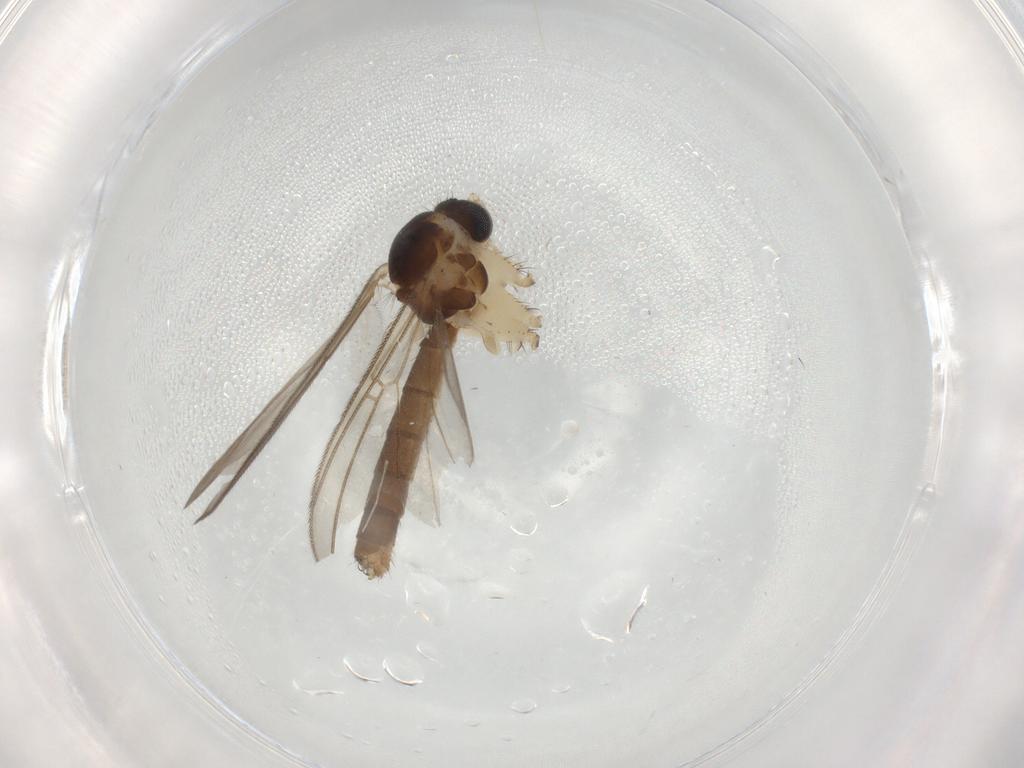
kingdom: Animalia
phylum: Arthropoda
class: Insecta
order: Diptera
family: Mycetophilidae
